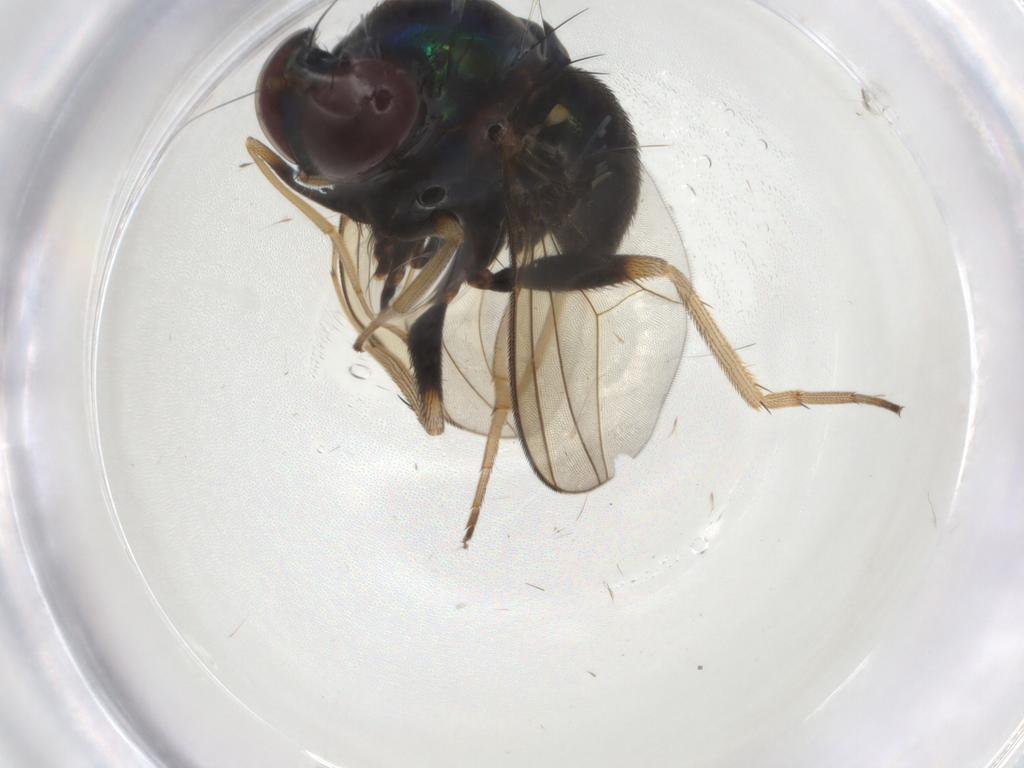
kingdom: Animalia
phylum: Arthropoda
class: Insecta
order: Diptera
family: Dolichopodidae
